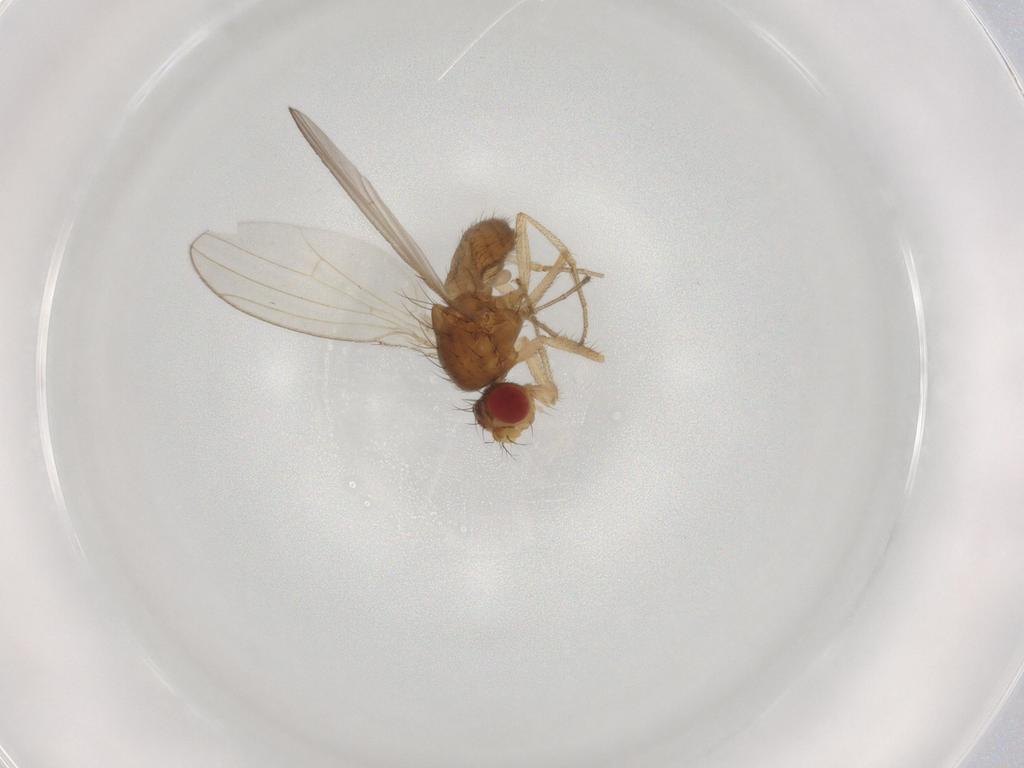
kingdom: Animalia
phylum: Arthropoda
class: Insecta
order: Diptera
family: Drosophilidae
